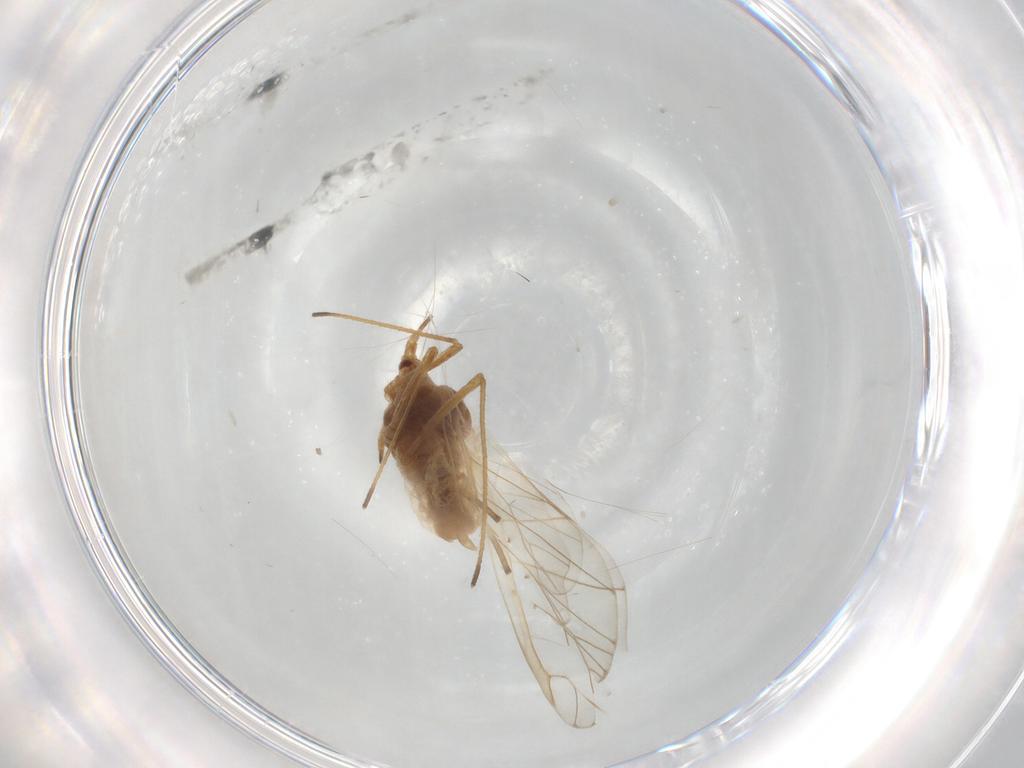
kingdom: Animalia
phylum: Arthropoda
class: Insecta
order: Hemiptera
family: Aphididae
